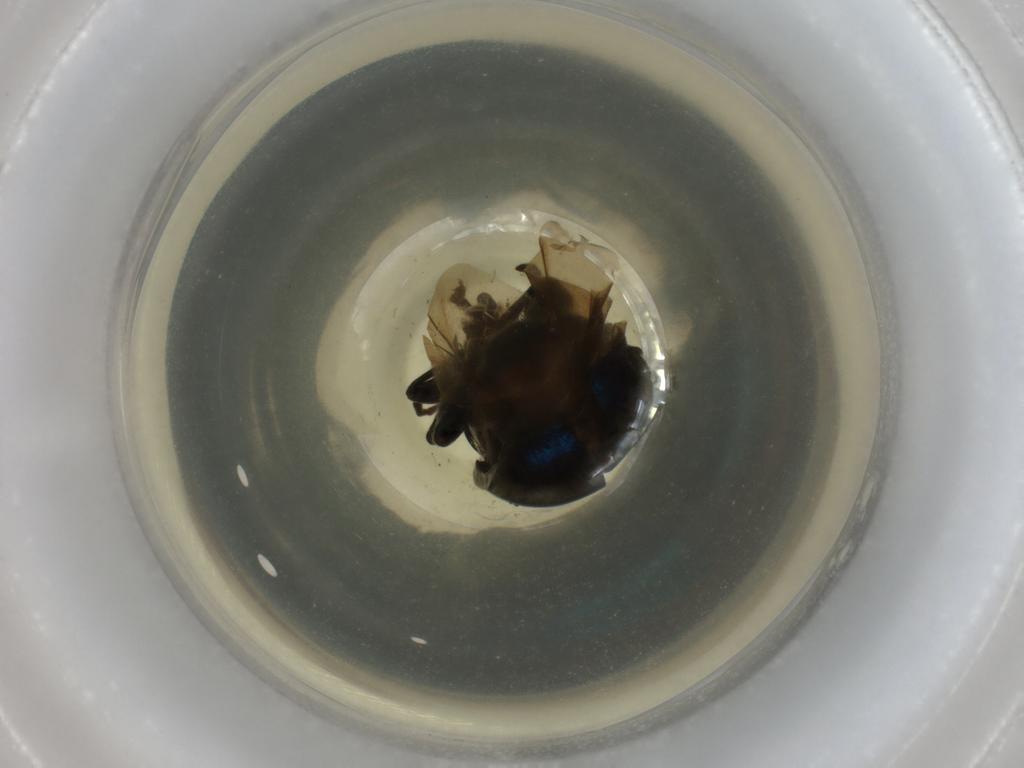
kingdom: Animalia
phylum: Arthropoda
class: Insecta
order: Coleoptera
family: Chrysomelidae
